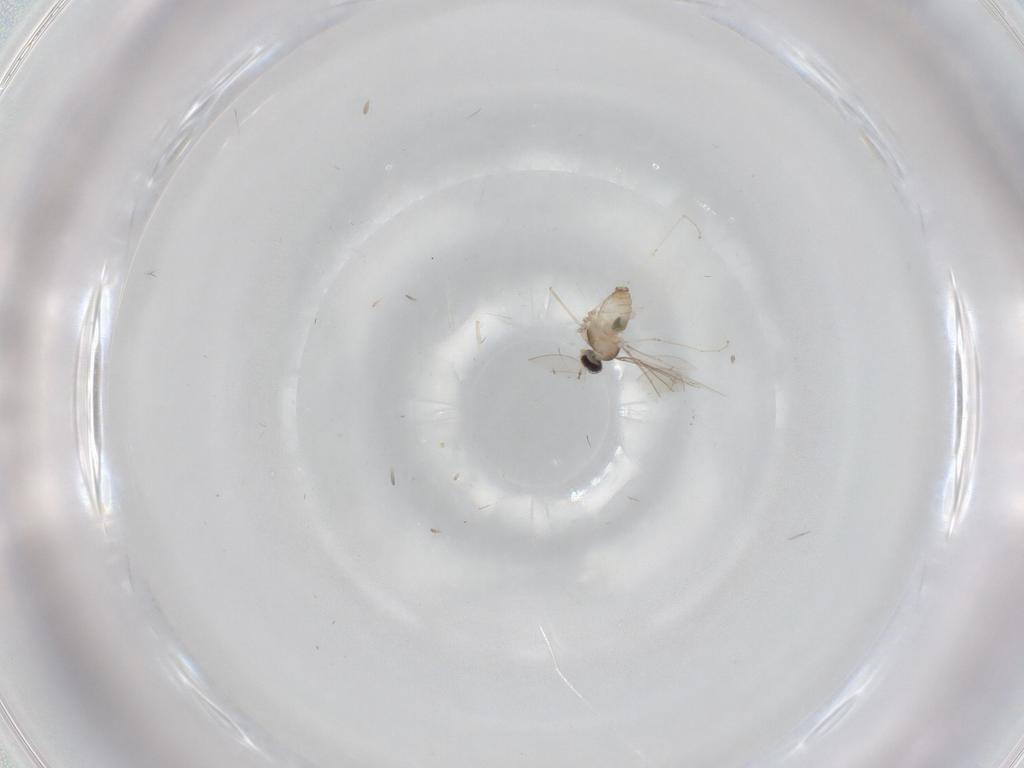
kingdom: Animalia
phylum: Arthropoda
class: Insecta
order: Diptera
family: Cecidomyiidae
